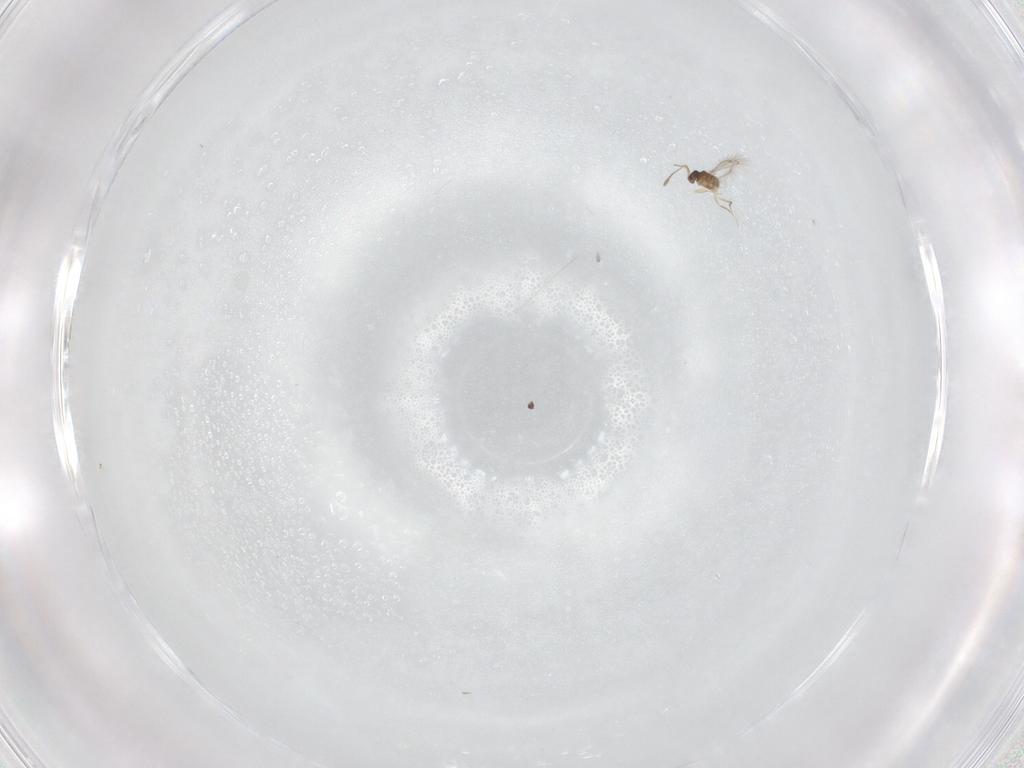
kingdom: Animalia
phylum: Arthropoda
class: Insecta
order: Hymenoptera
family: Mymaridae
